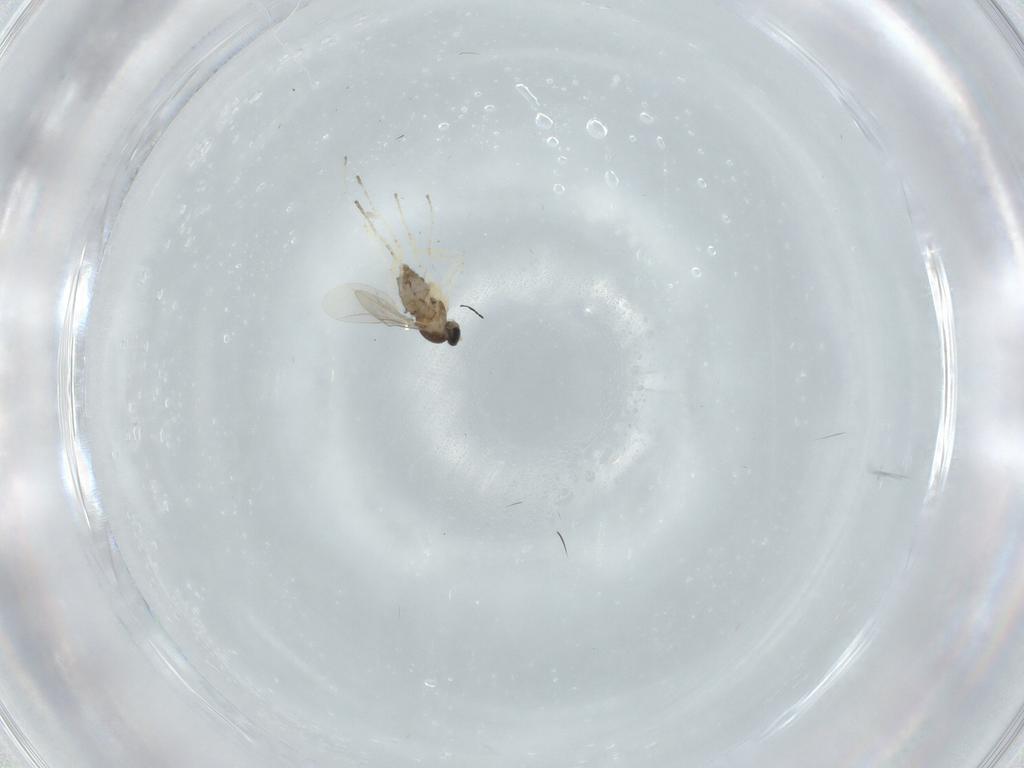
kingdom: Animalia
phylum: Arthropoda
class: Insecta
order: Diptera
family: Cecidomyiidae
